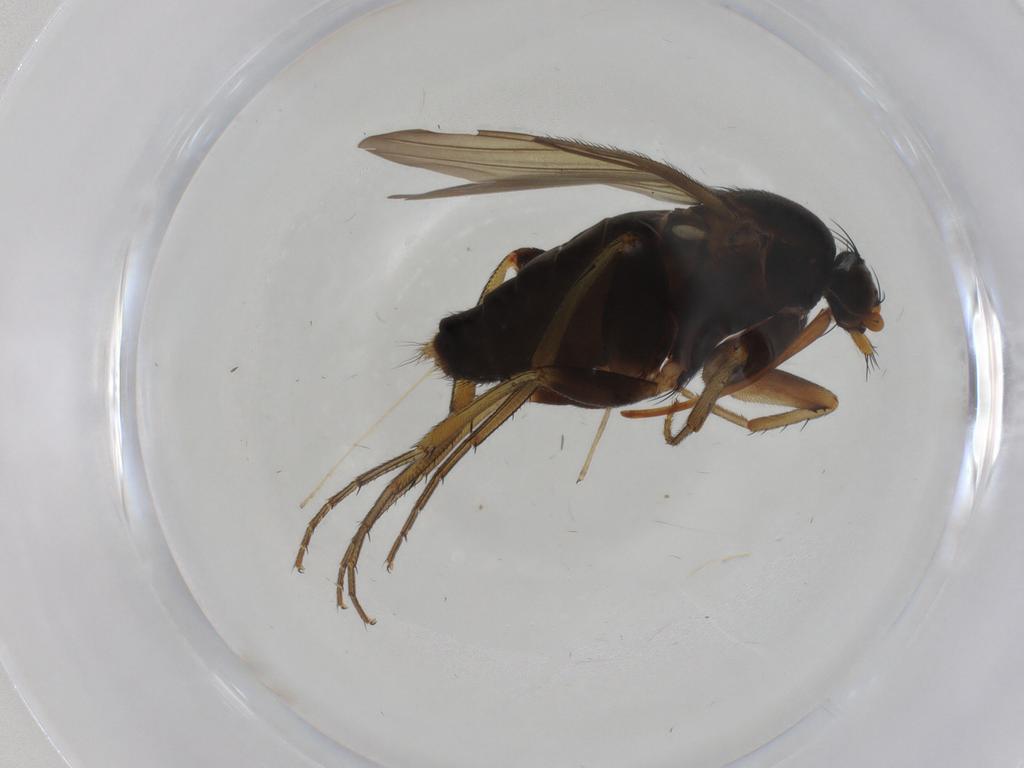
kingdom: Animalia
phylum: Arthropoda
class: Insecta
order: Diptera
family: Phoridae
